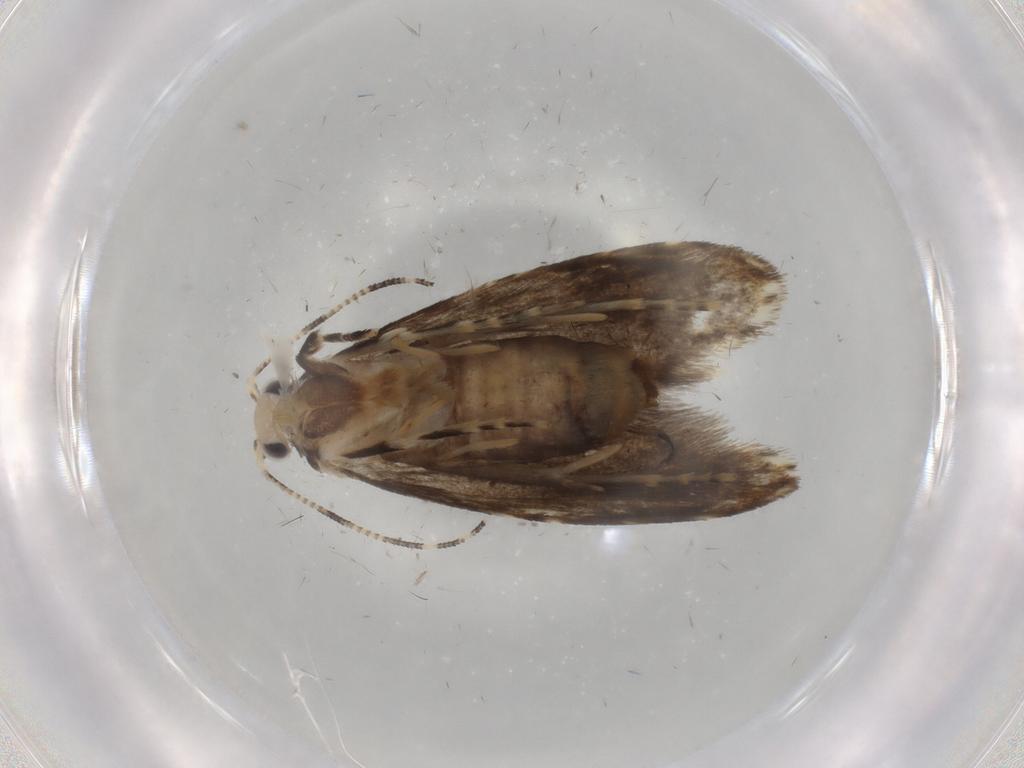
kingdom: Animalia
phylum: Arthropoda
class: Insecta
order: Lepidoptera
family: Tineidae
